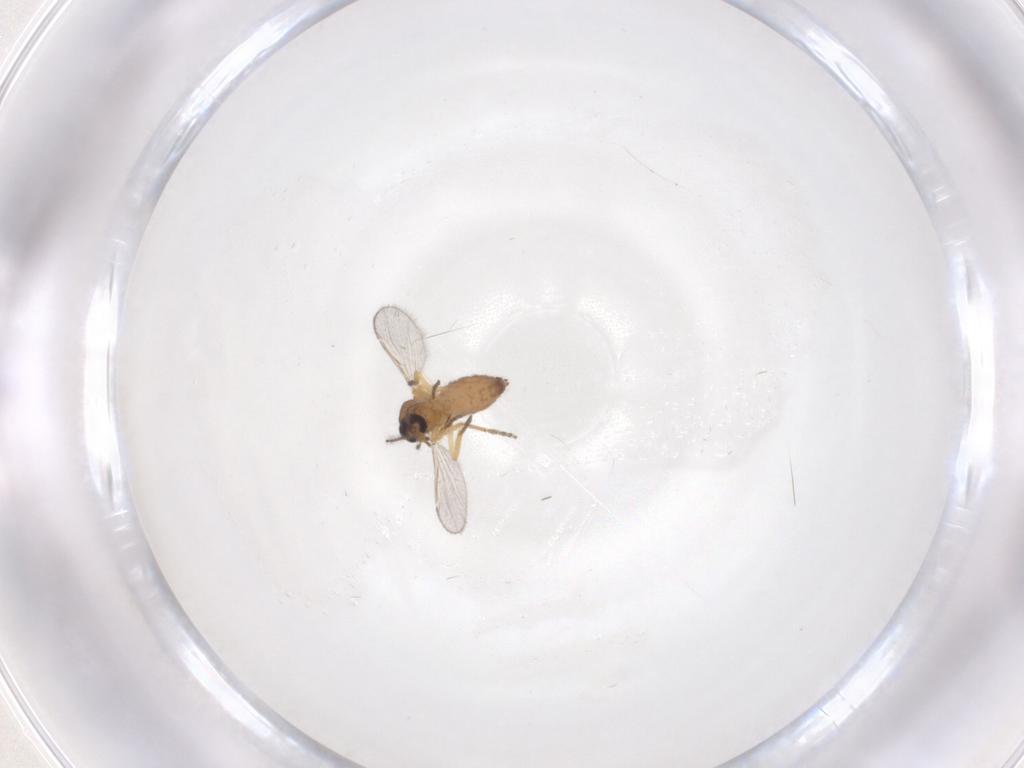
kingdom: Animalia
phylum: Arthropoda
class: Insecta
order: Diptera
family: Ceratopogonidae
